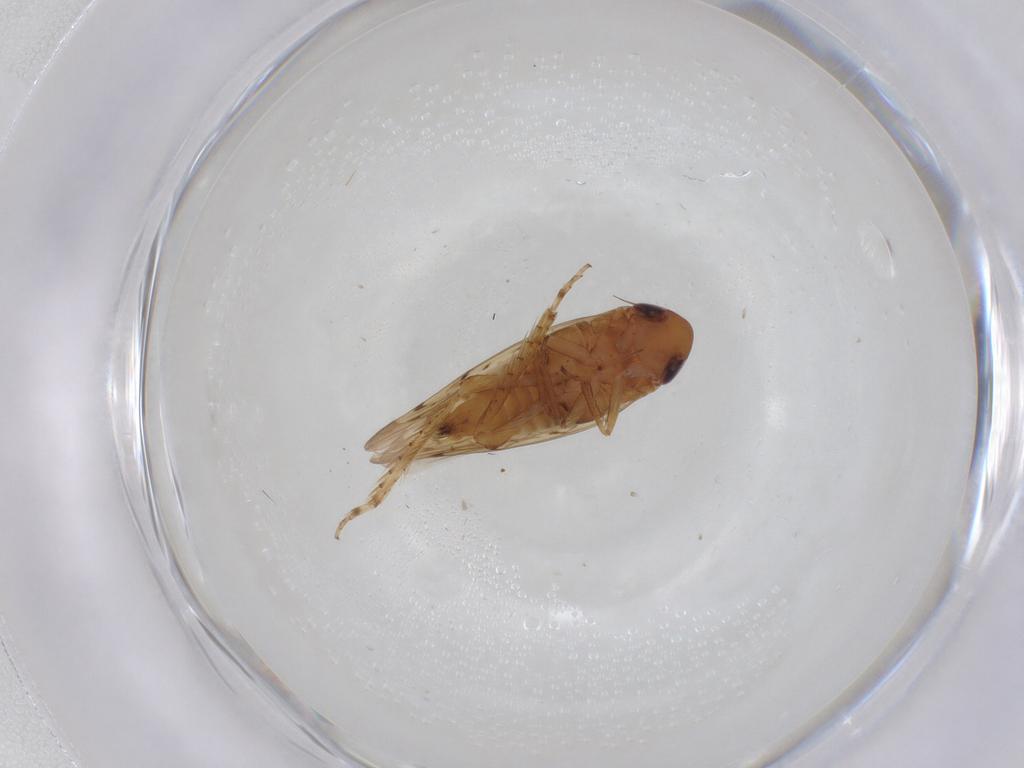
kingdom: Animalia
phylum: Arthropoda
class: Insecta
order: Hemiptera
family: Cicadellidae
